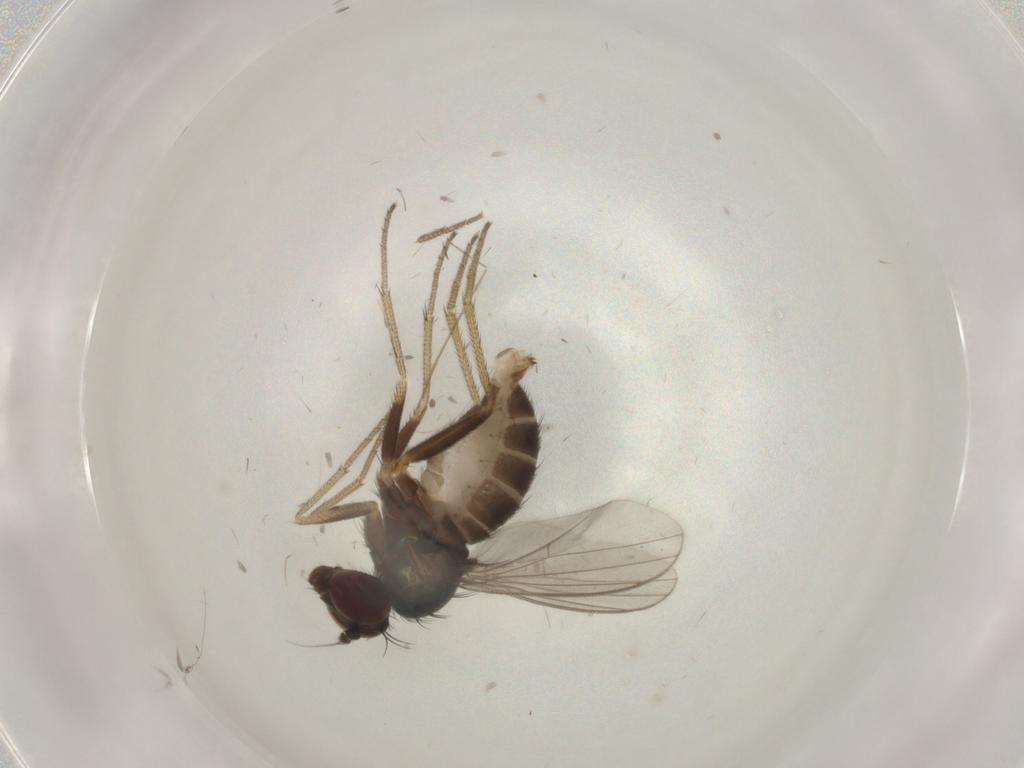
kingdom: Animalia
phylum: Arthropoda
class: Insecta
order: Diptera
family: Dolichopodidae
